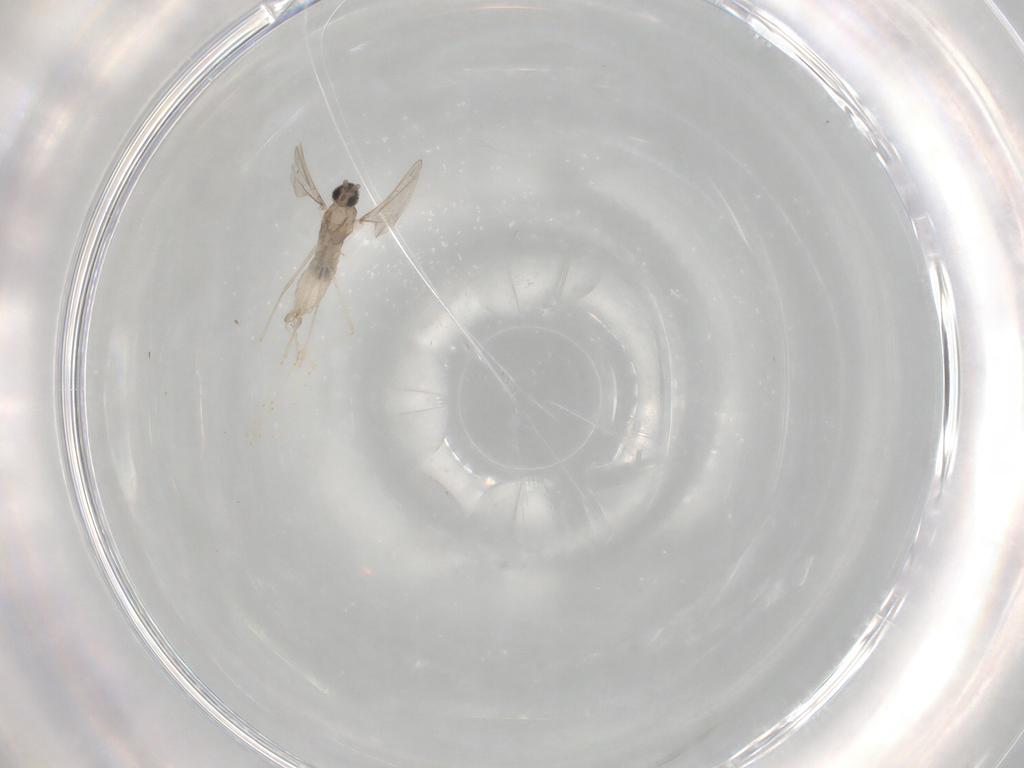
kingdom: Animalia
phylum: Arthropoda
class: Insecta
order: Diptera
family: Cecidomyiidae
